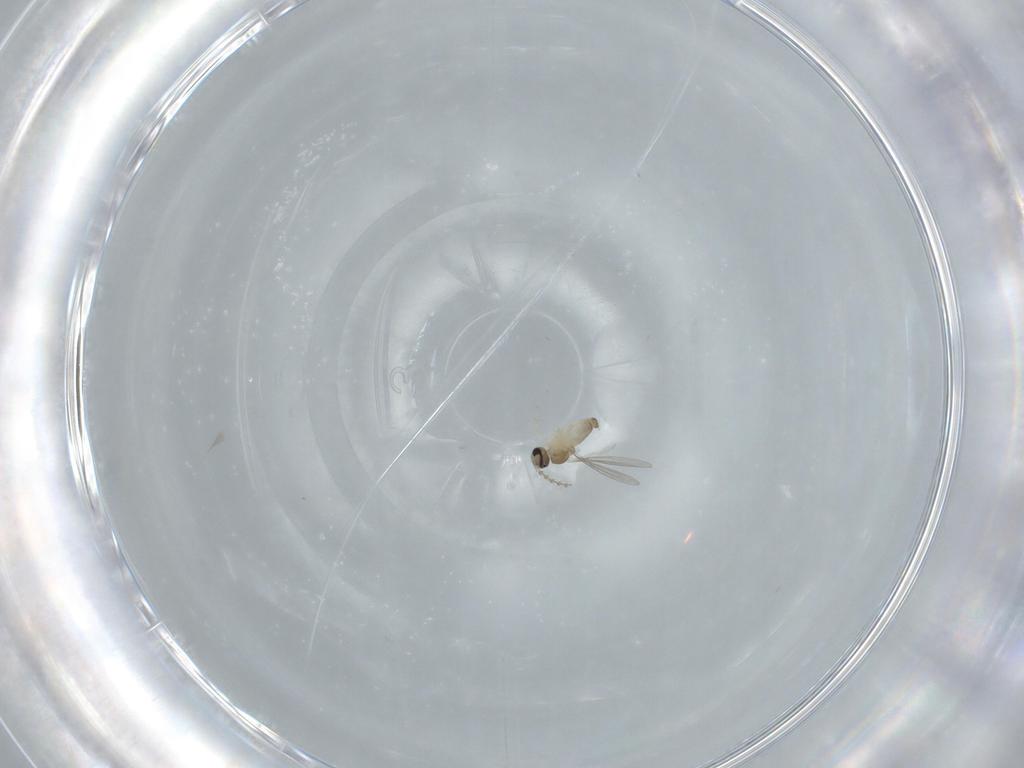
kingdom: Animalia
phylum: Arthropoda
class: Insecta
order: Diptera
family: Cecidomyiidae
